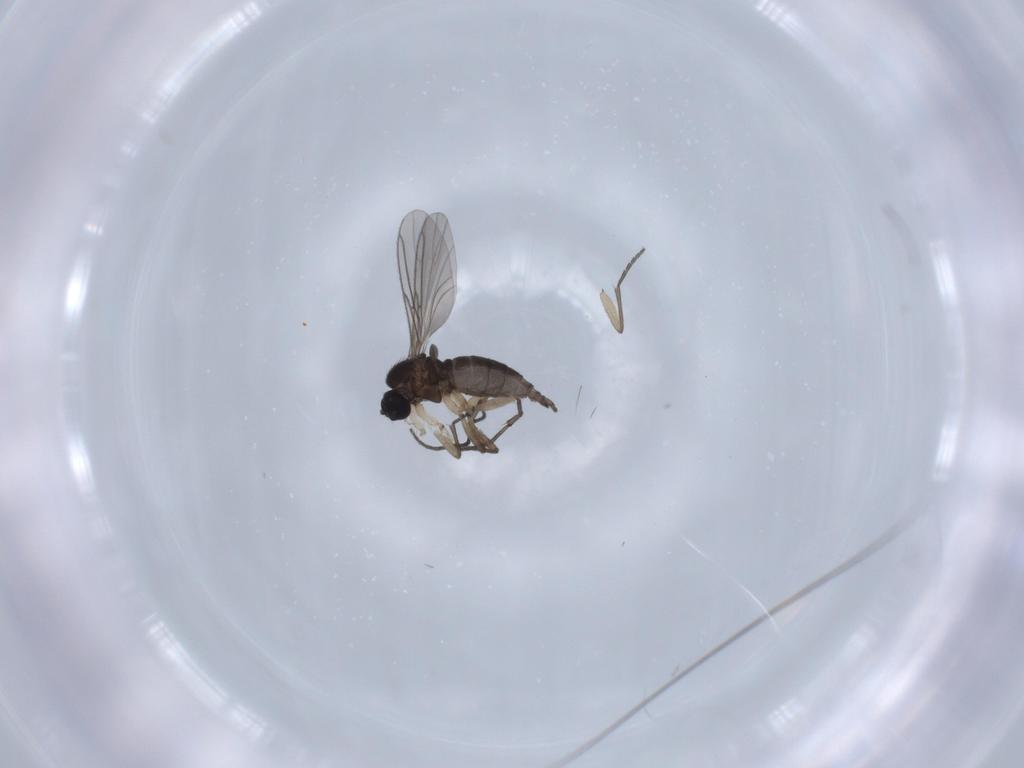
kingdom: Animalia
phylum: Arthropoda
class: Insecta
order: Diptera
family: Sciaridae
